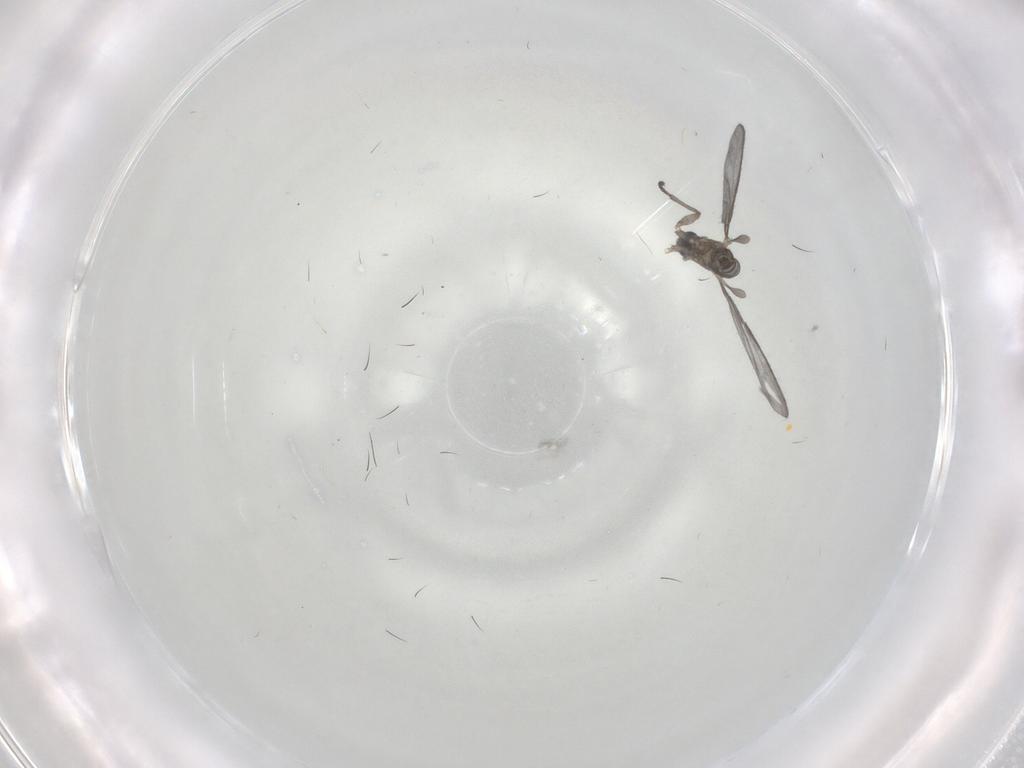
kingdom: Animalia
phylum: Arthropoda
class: Insecta
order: Diptera
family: Sciaridae
